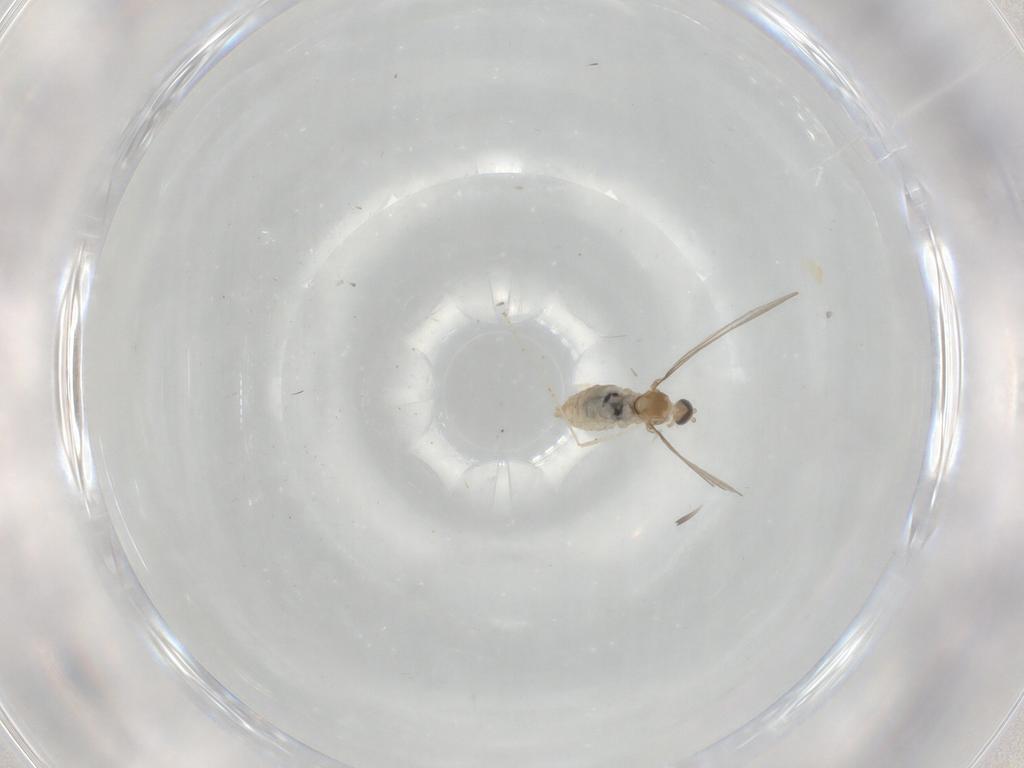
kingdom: Animalia
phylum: Arthropoda
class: Insecta
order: Diptera
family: Cecidomyiidae
